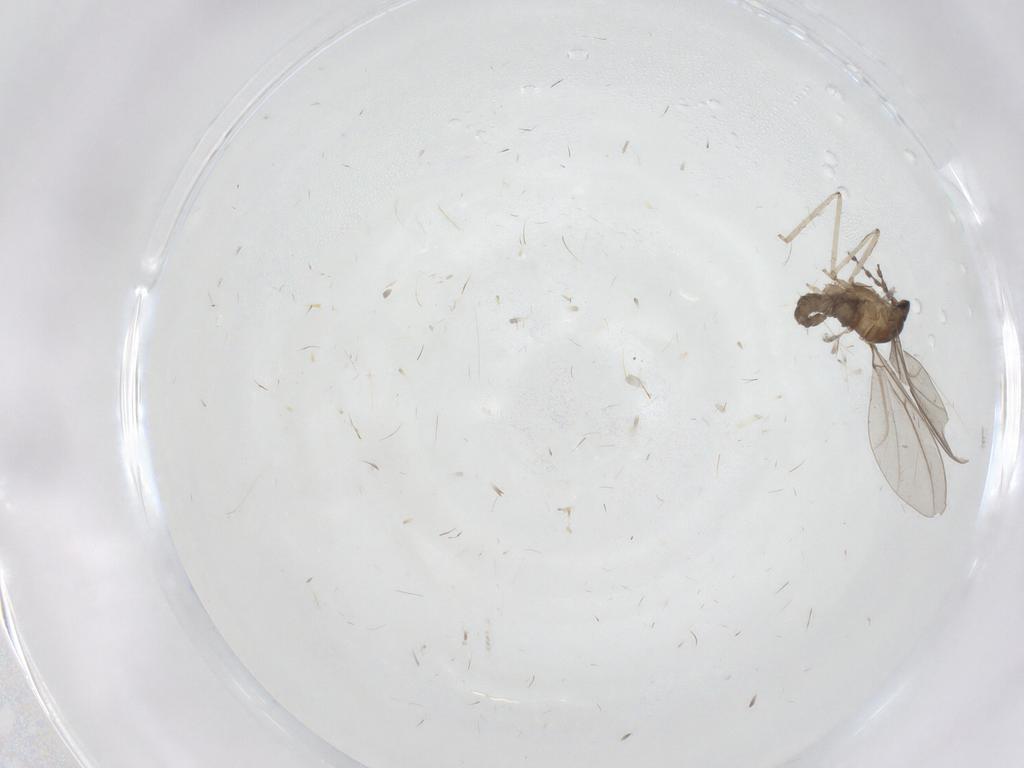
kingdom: Animalia
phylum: Arthropoda
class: Insecta
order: Diptera
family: Cecidomyiidae
